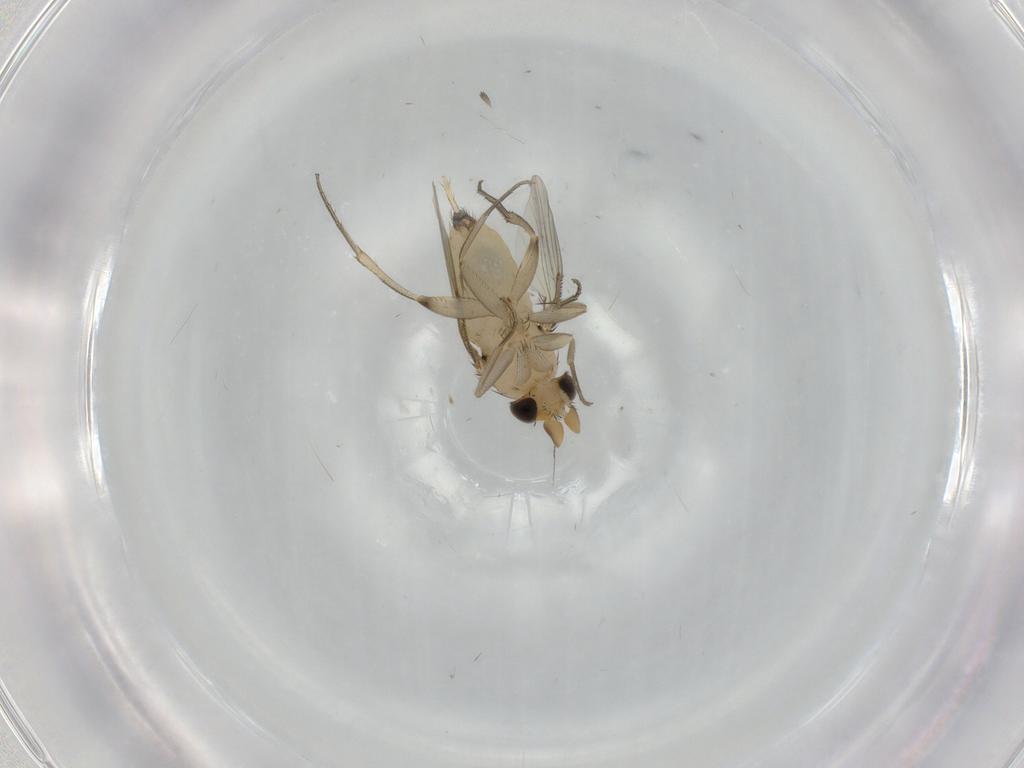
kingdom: Animalia
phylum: Arthropoda
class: Insecta
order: Diptera
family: Phoridae
